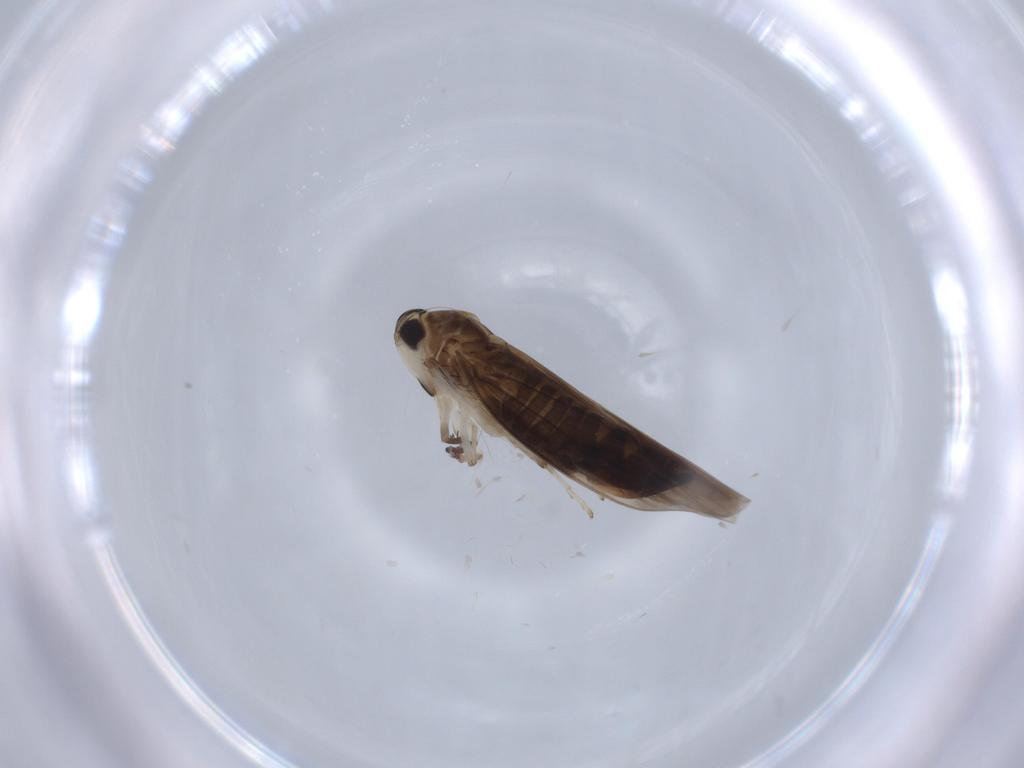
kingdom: Animalia
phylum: Arthropoda
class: Insecta
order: Hemiptera
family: Cicadellidae
